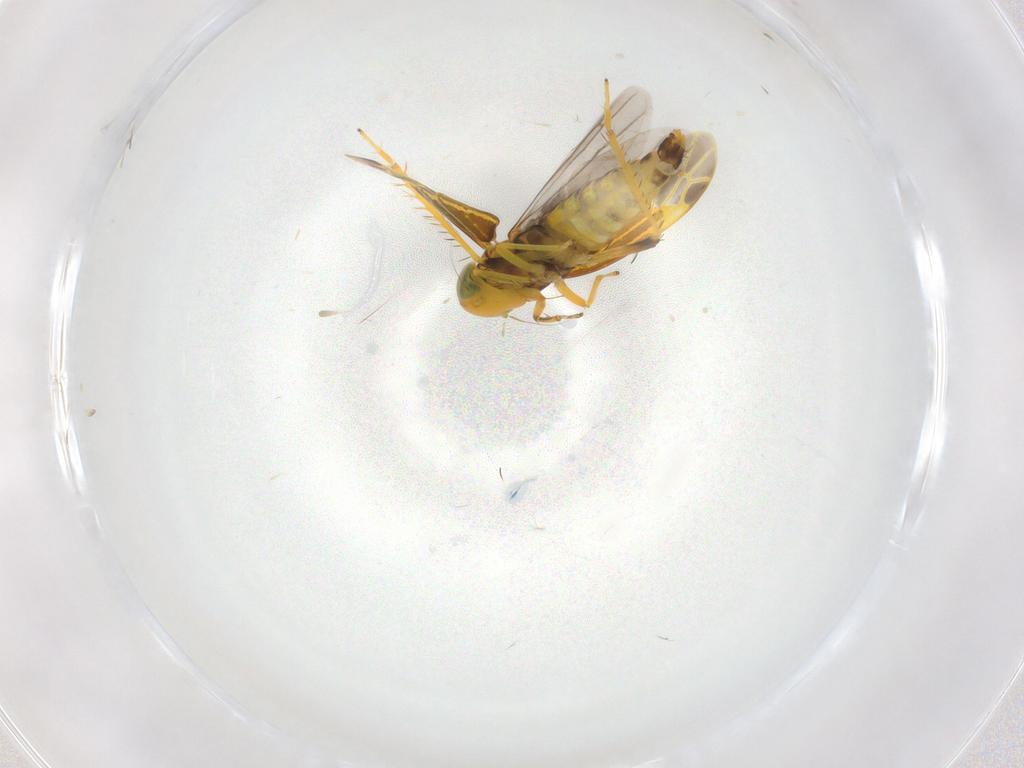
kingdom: Animalia
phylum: Arthropoda
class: Insecta
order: Hemiptera
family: Cicadellidae
